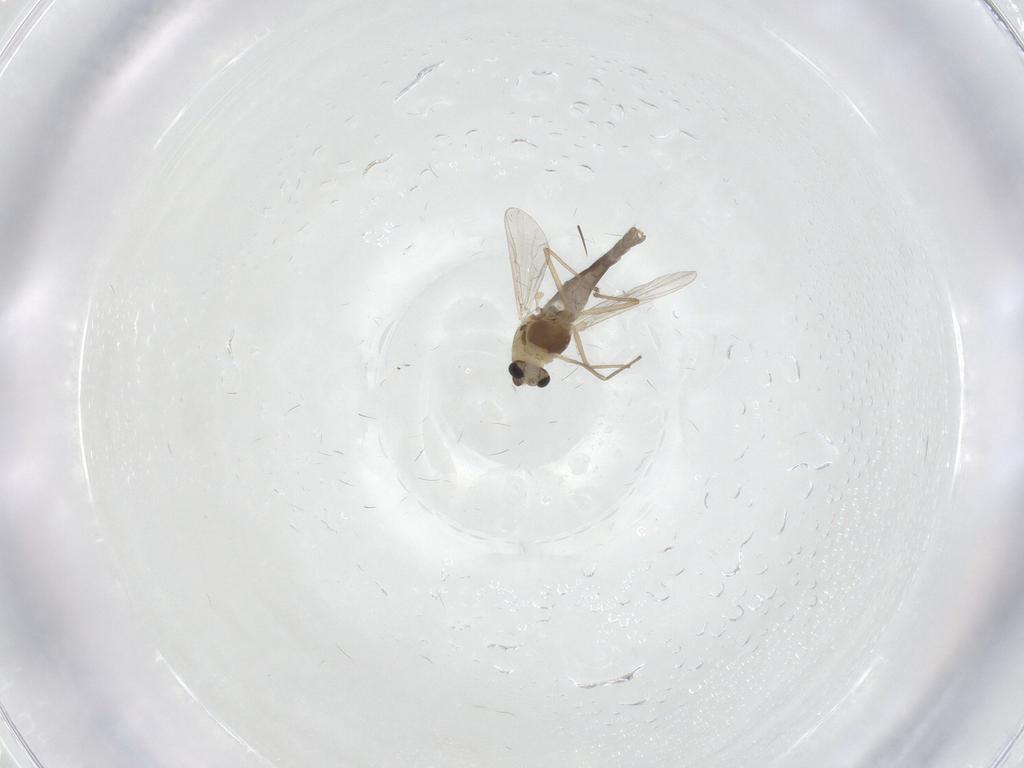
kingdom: Animalia
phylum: Arthropoda
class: Insecta
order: Diptera
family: Chironomidae
